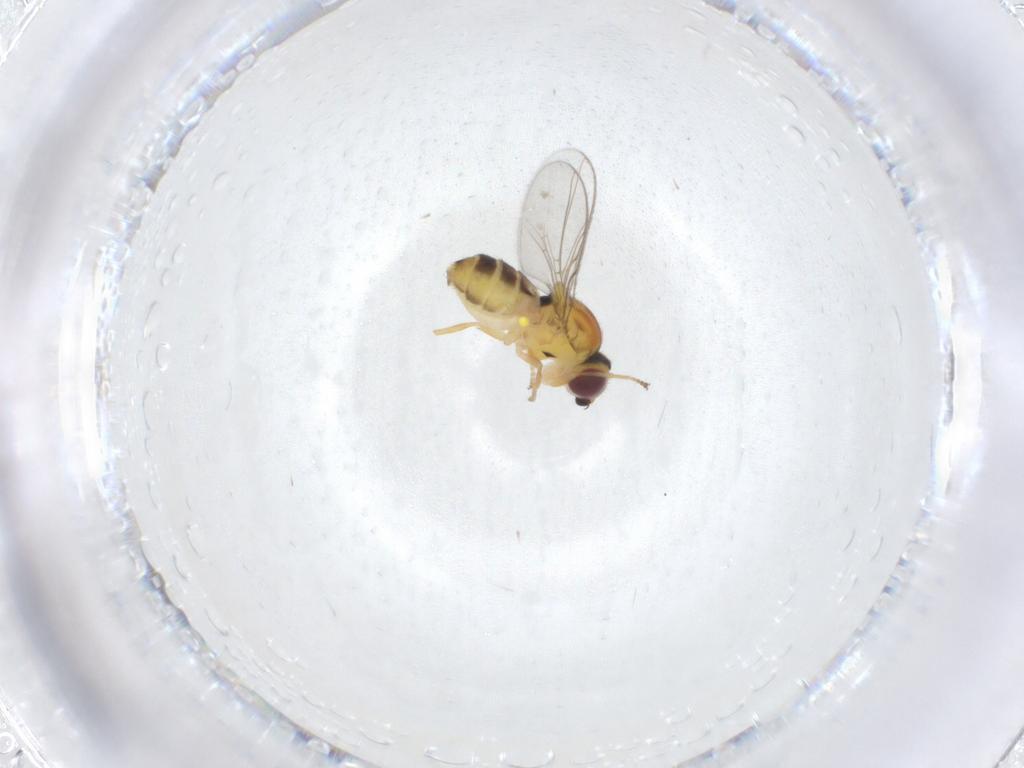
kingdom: Animalia
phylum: Arthropoda
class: Insecta
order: Diptera
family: Chloropidae
